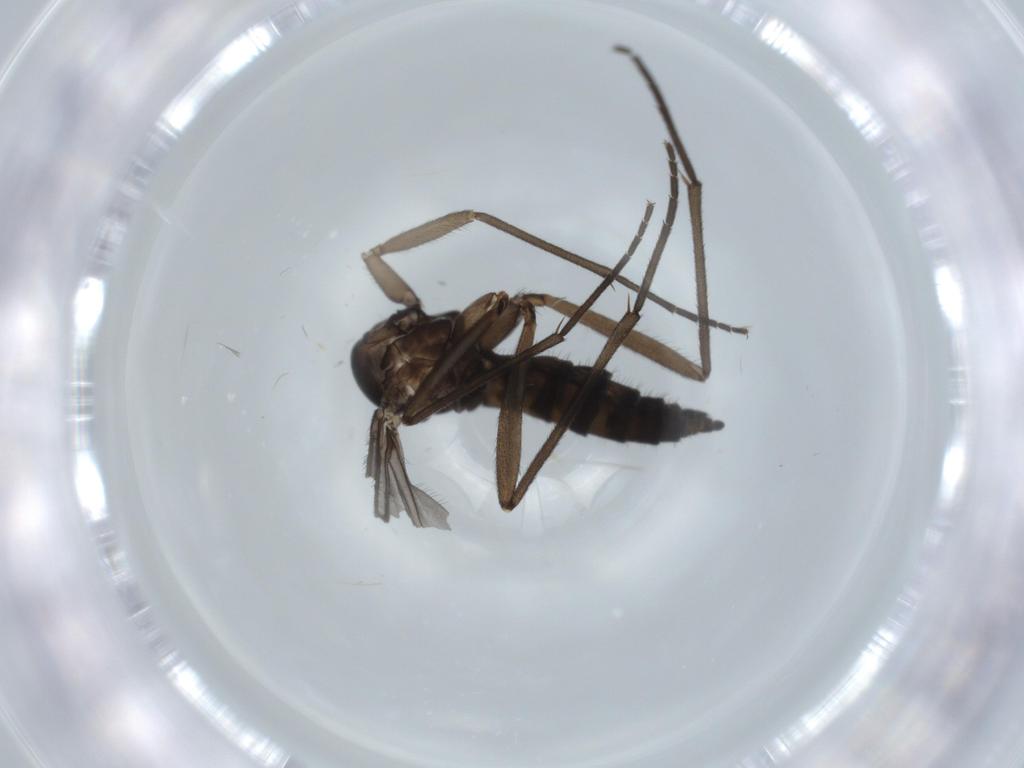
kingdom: Animalia
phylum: Arthropoda
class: Insecta
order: Diptera
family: Sciaridae
